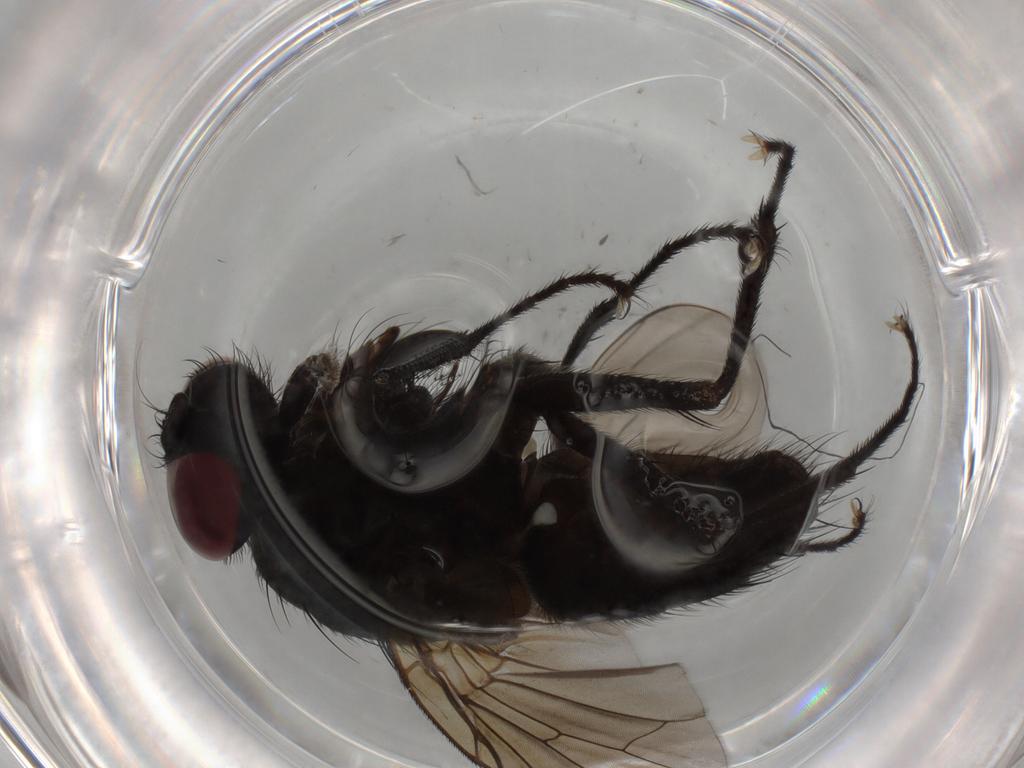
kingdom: Animalia
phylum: Arthropoda
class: Insecta
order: Diptera
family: Muscidae
